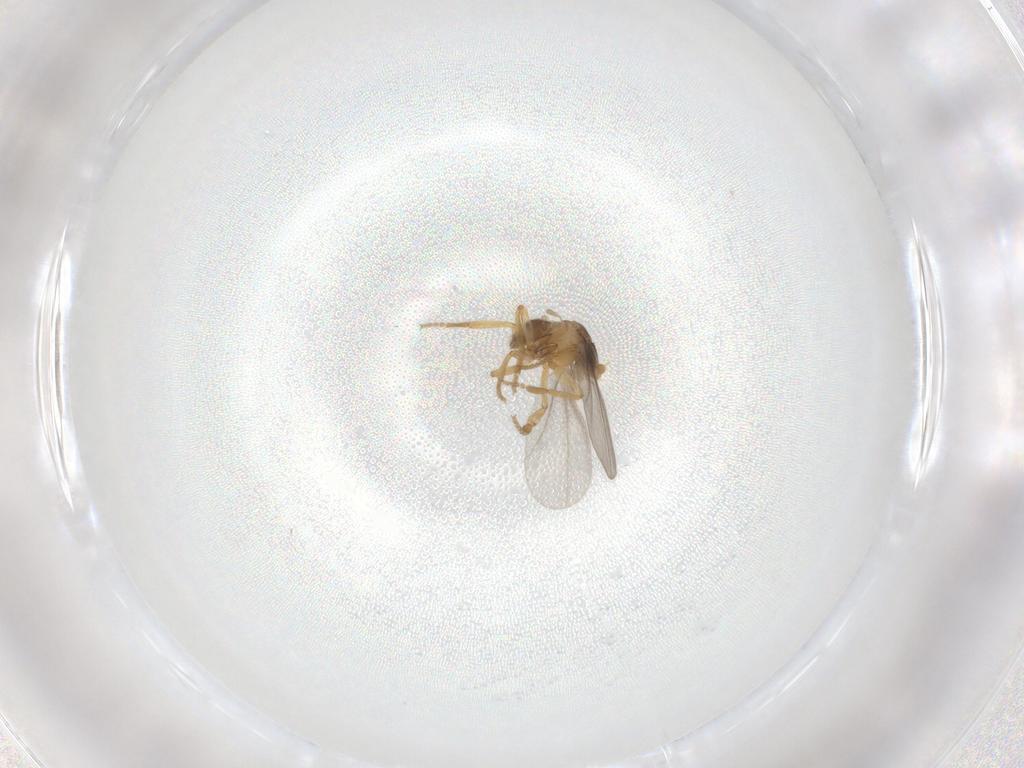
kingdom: Animalia
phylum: Arthropoda
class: Insecta
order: Diptera
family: Phoridae
